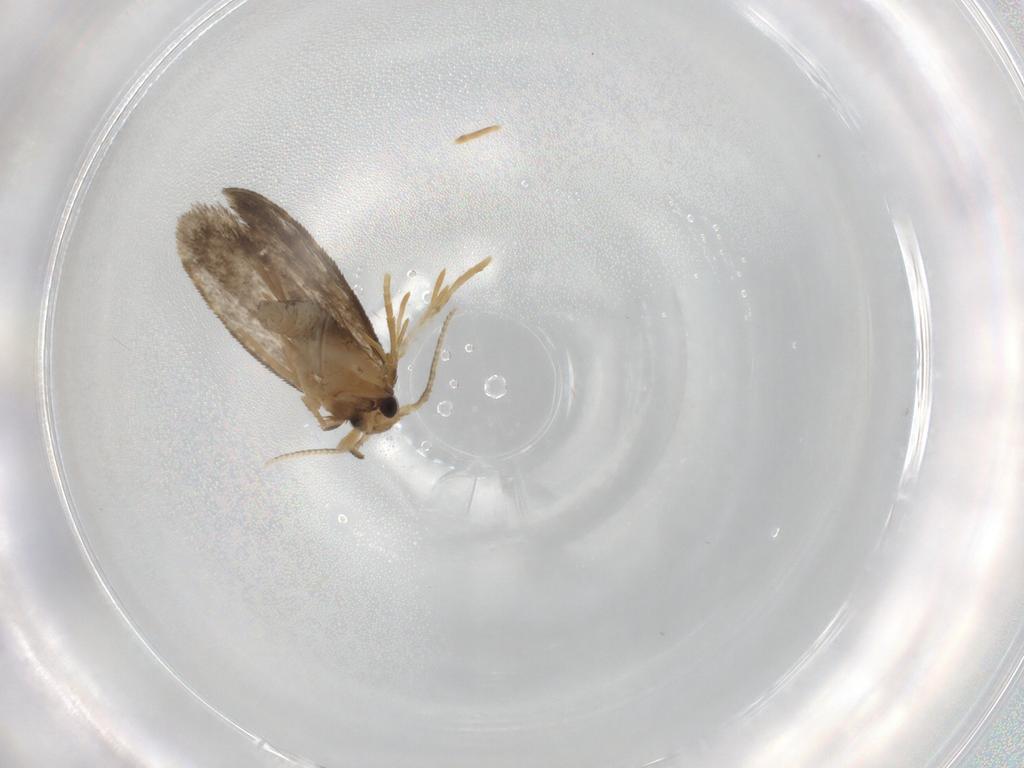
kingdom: Animalia
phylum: Arthropoda
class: Insecta
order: Lepidoptera
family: Psychidae
